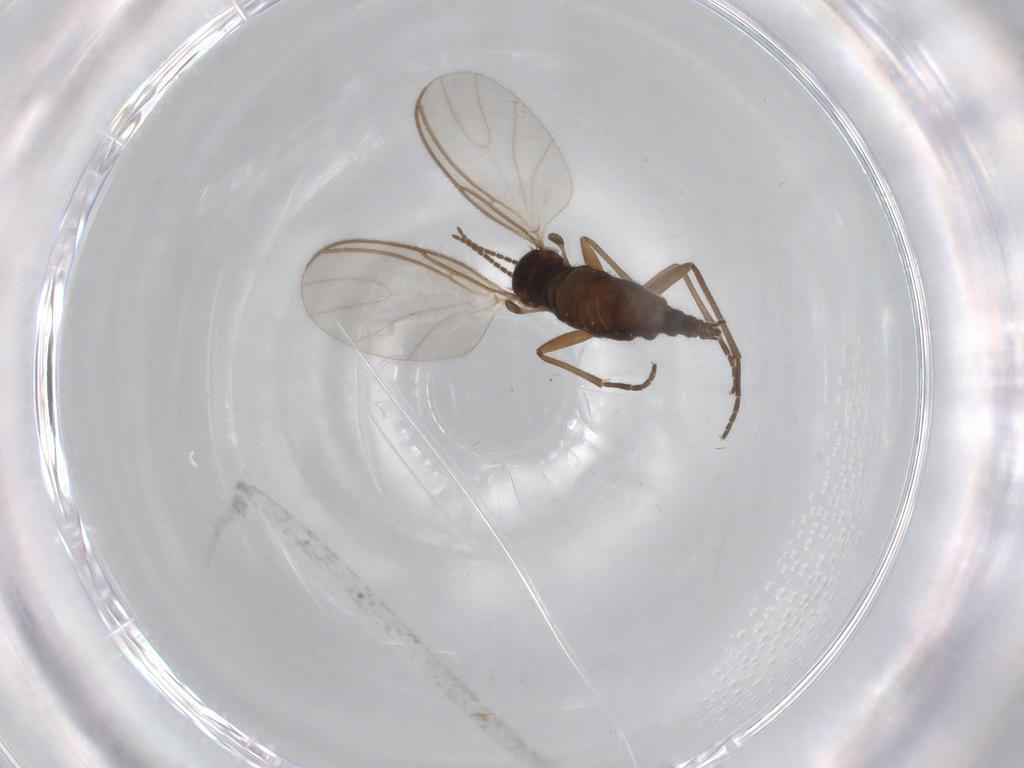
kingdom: Animalia
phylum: Arthropoda
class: Insecta
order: Diptera
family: Sciaridae
